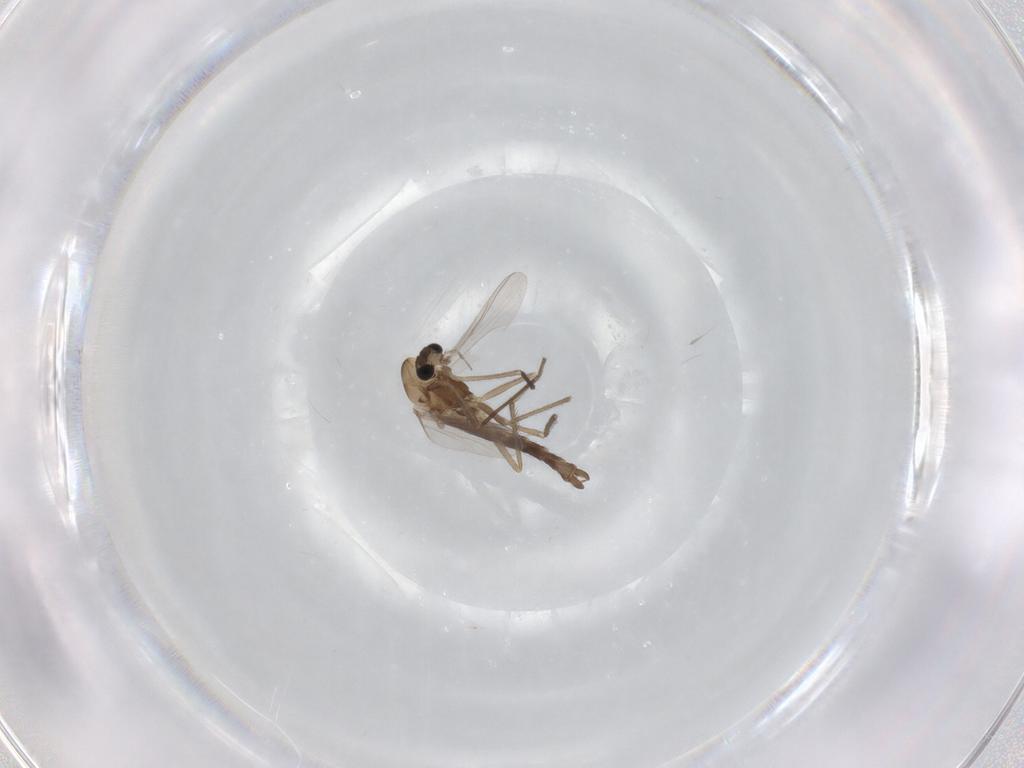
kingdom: Animalia
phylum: Arthropoda
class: Insecta
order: Diptera
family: Chironomidae
